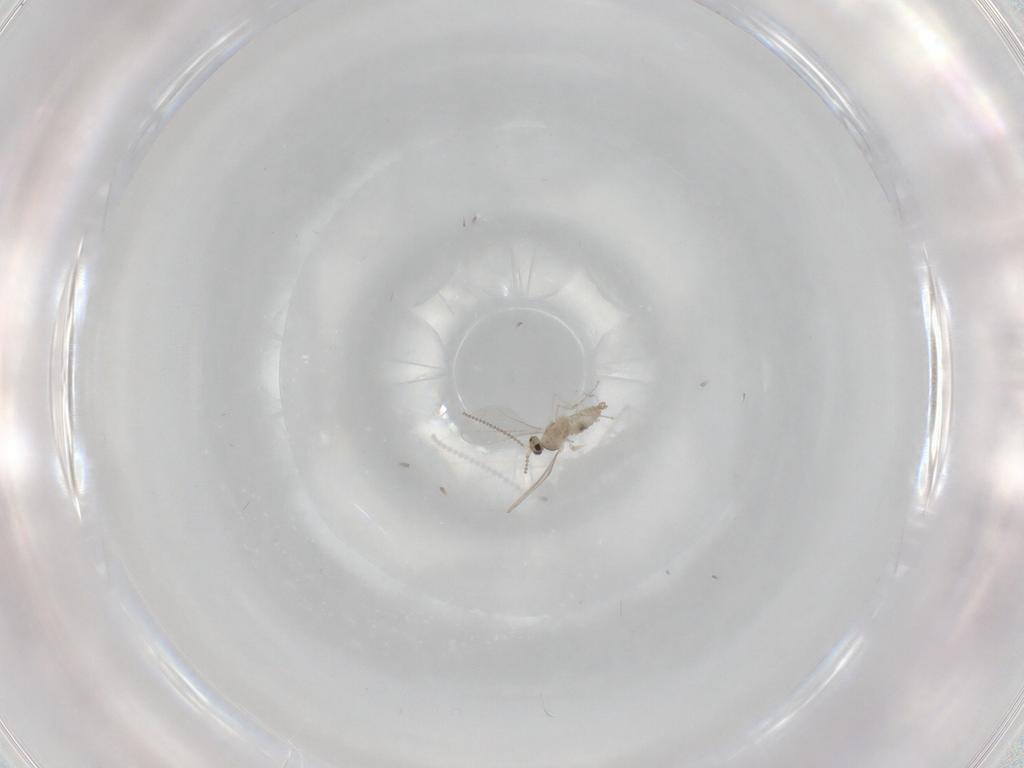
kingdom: Animalia
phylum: Arthropoda
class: Insecta
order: Diptera
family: Cecidomyiidae
